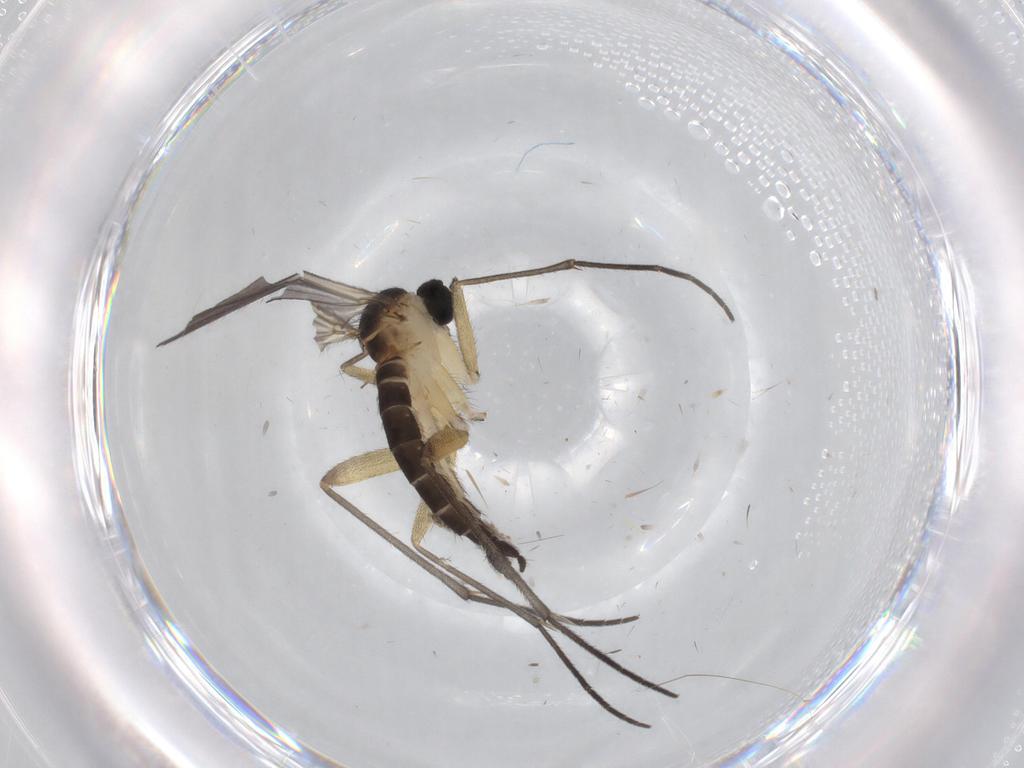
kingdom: Animalia
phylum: Arthropoda
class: Insecta
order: Diptera
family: Sciaridae
